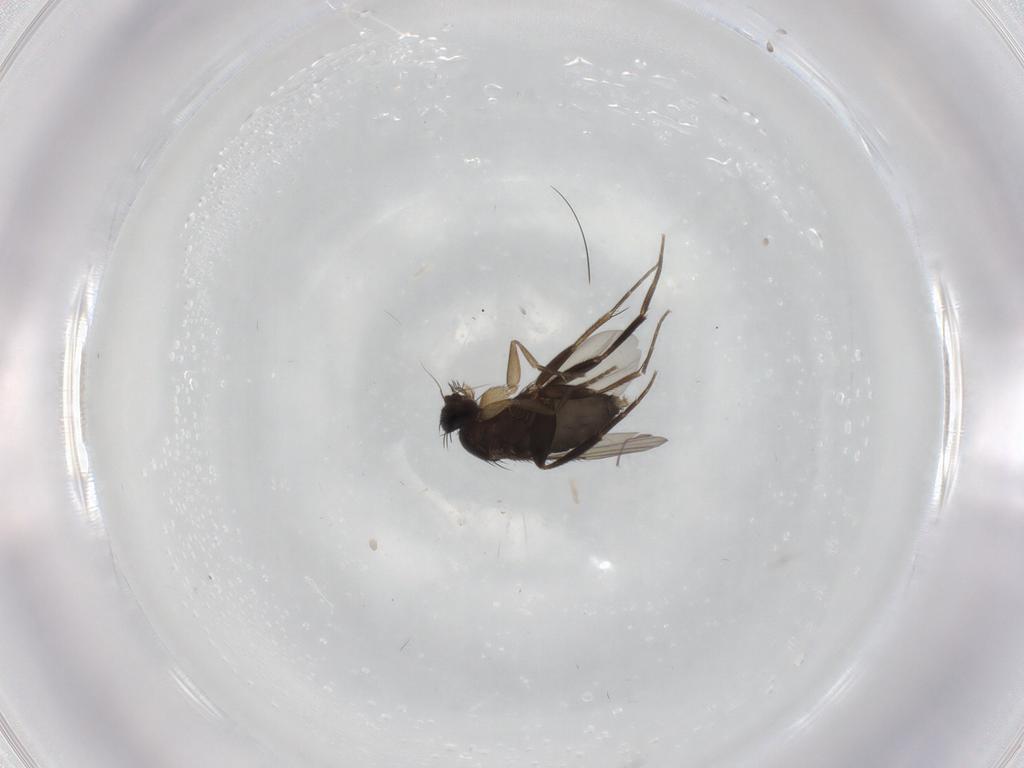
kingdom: Animalia
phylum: Arthropoda
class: Insecta
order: Diptera
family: Phoridae
